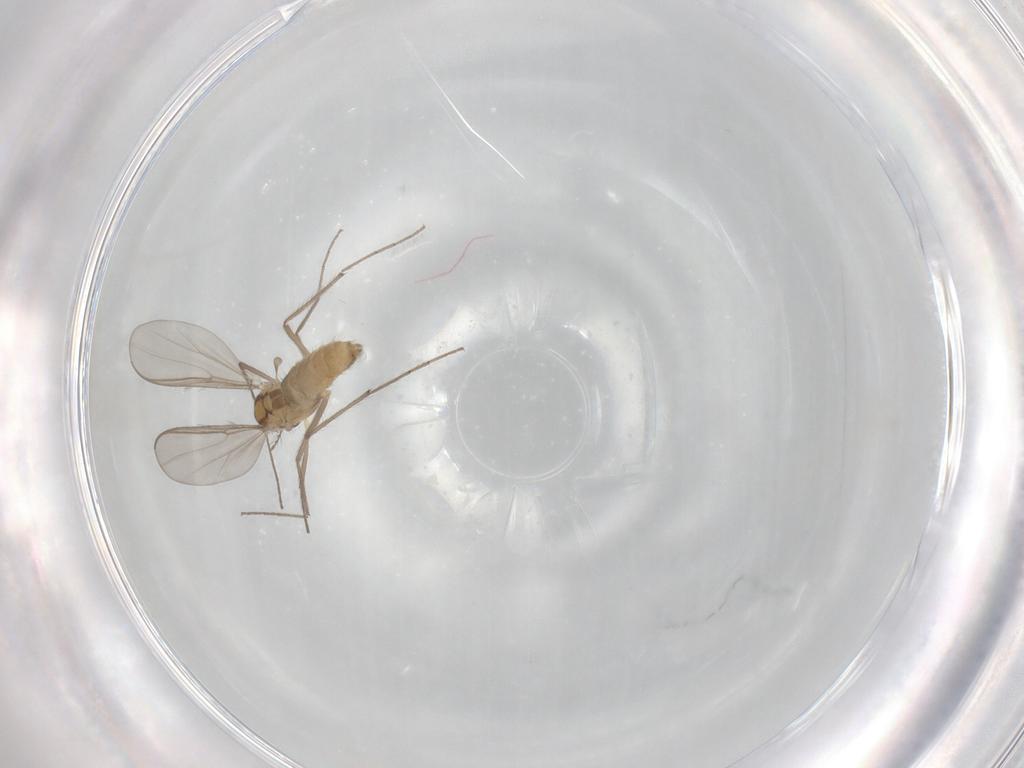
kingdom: Animalia
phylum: Arthropoda
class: Insecta
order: Diptera
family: Chironomidae
